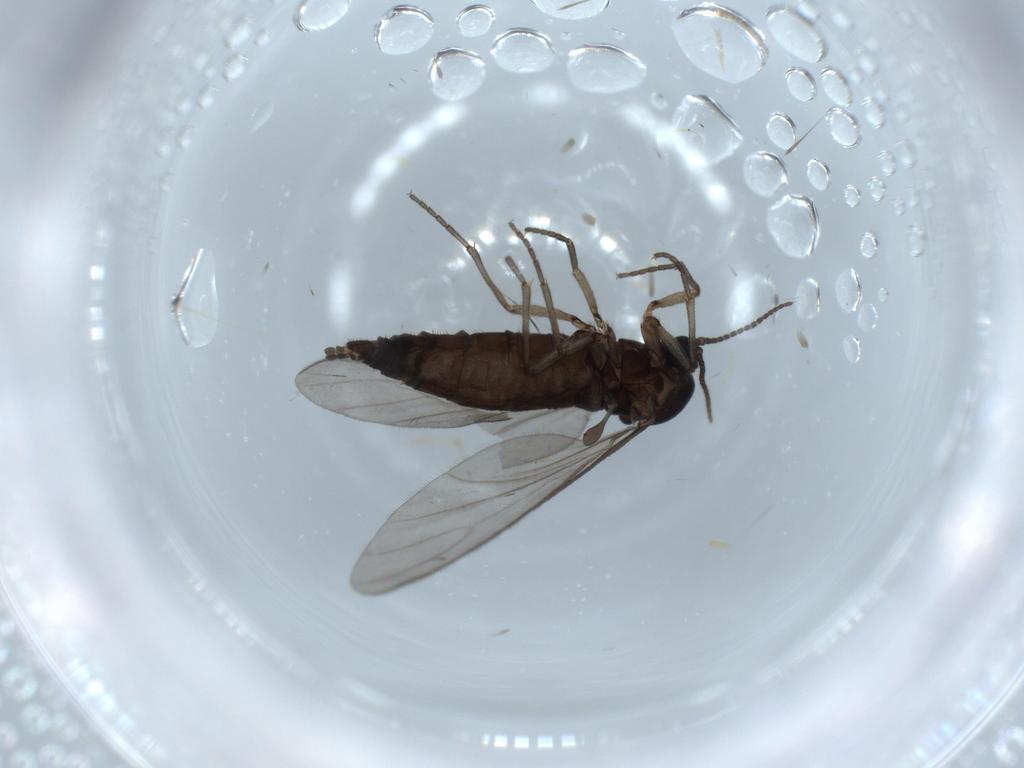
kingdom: Animalia
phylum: Arthropoda
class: Insecta
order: Diptera
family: Sciaridae
